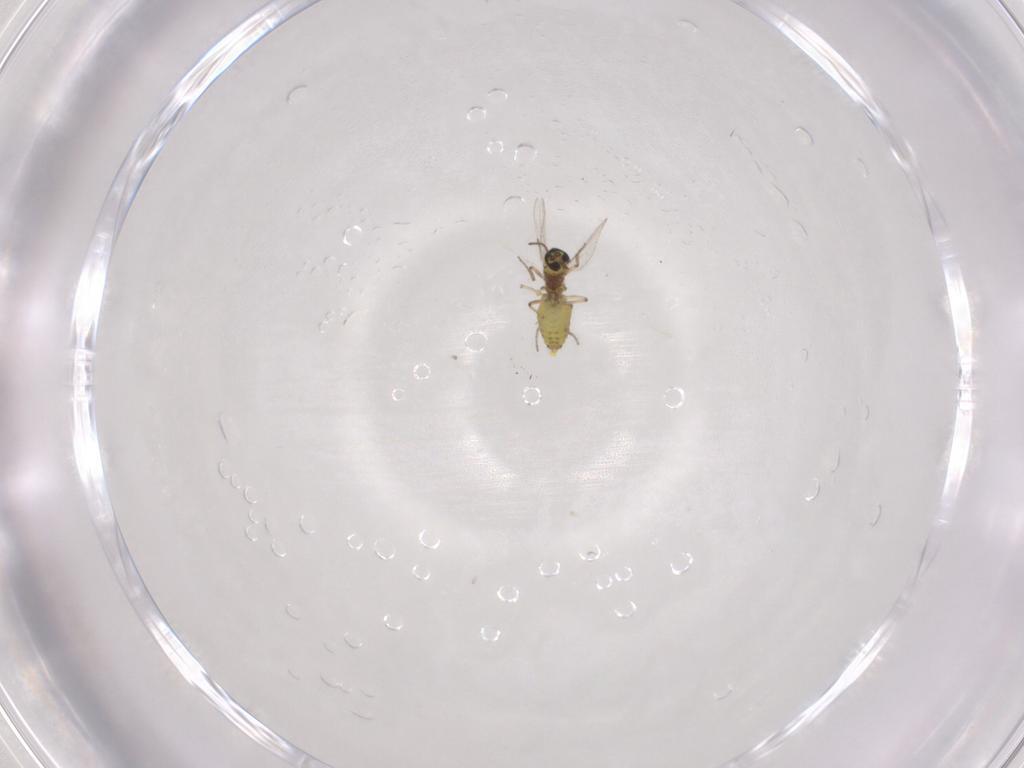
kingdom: Animalia
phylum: Arthropoda
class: Insecta
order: Diptera
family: Ceratopogonidae
